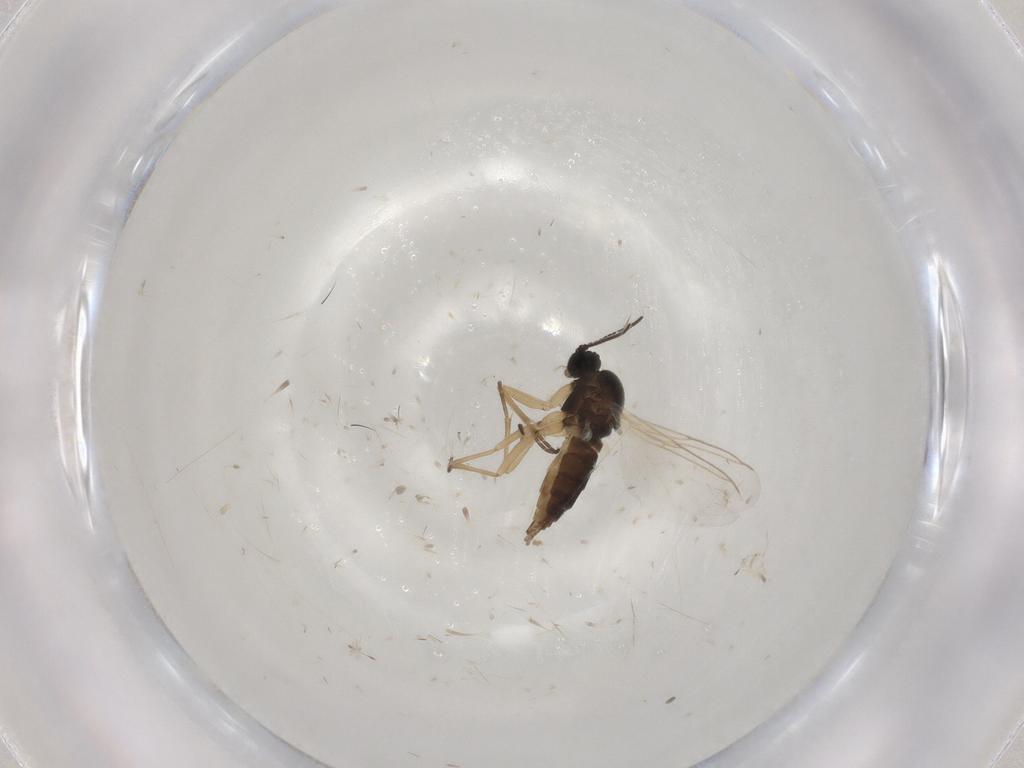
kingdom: Animalia
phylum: Arthropoda
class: Insecta
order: Diptera
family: Sciaridae
